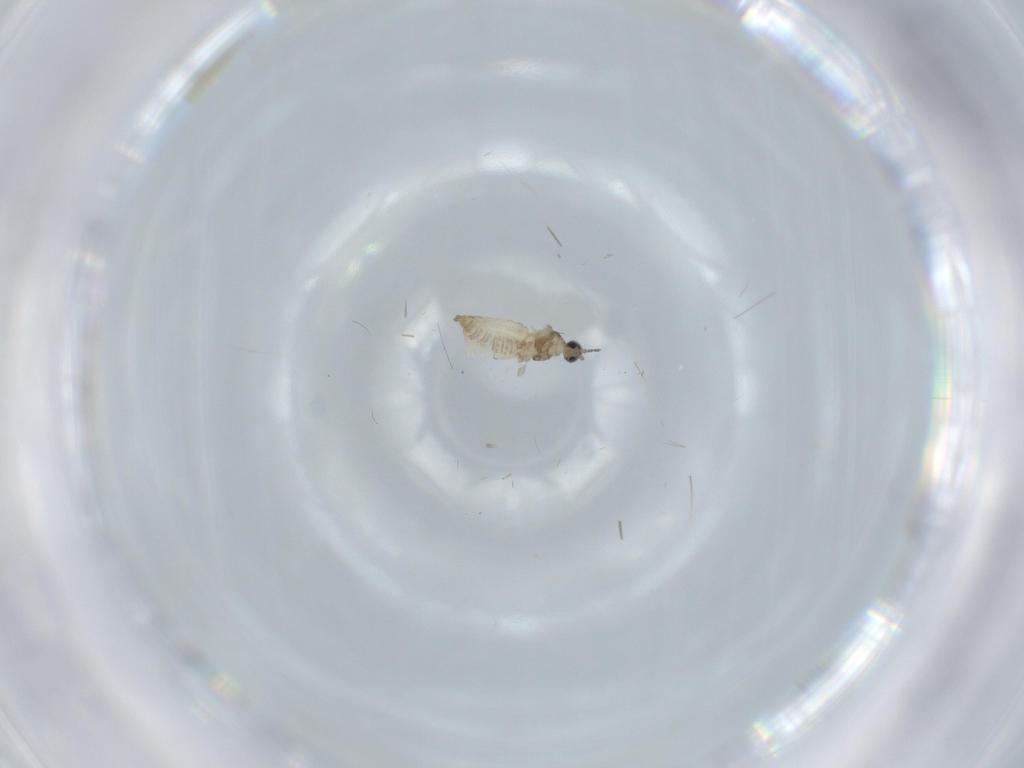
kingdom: Animalia
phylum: Arthropoda
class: Insecta
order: Diptera
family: Cecidomyiidae
